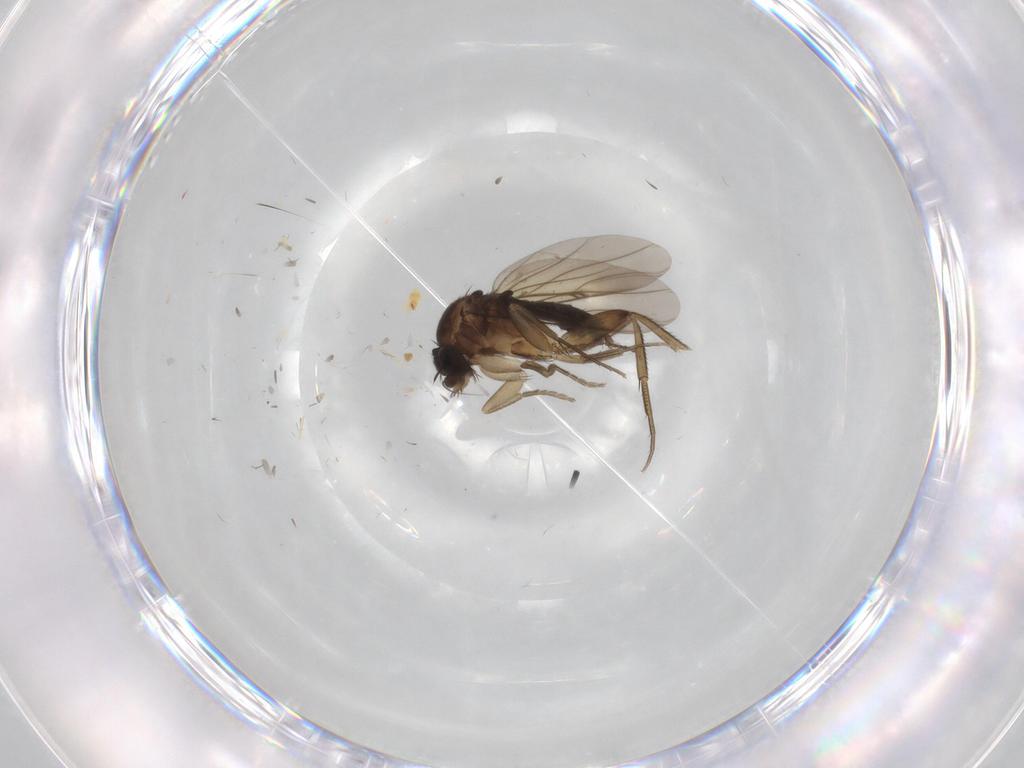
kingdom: Animalia
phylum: Arthropoda
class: Insecta
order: Diptera
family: Phoridae
